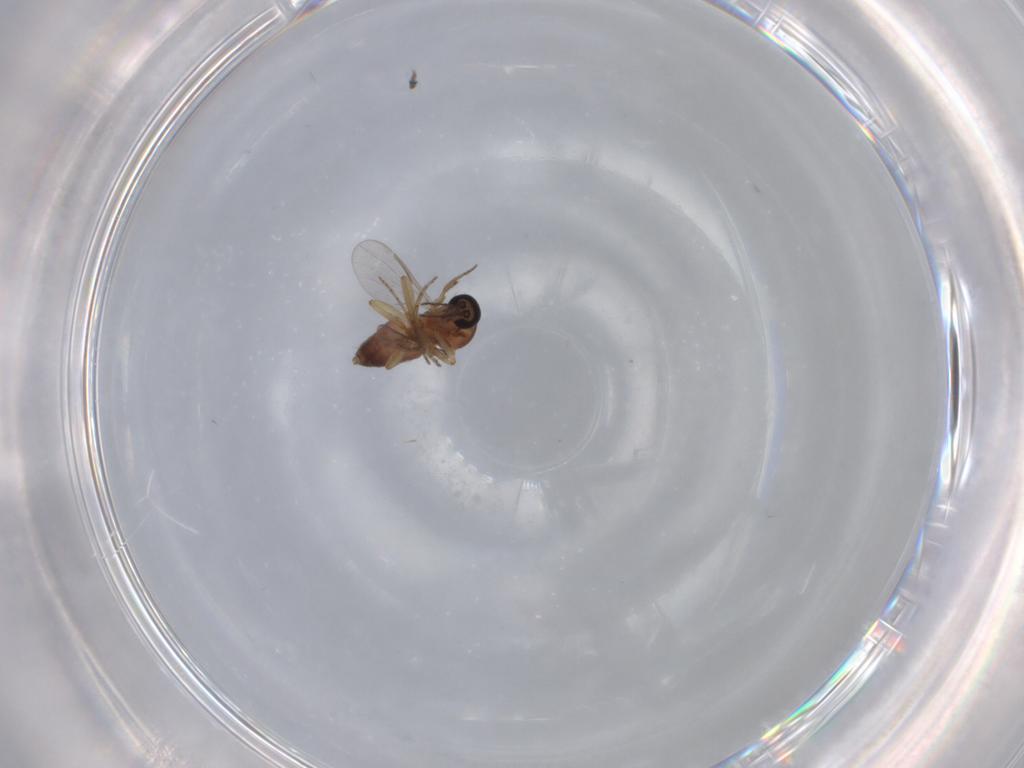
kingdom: Animalia
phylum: Arthropoda
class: Insecta
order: Diptera
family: Ceratopogonidae
